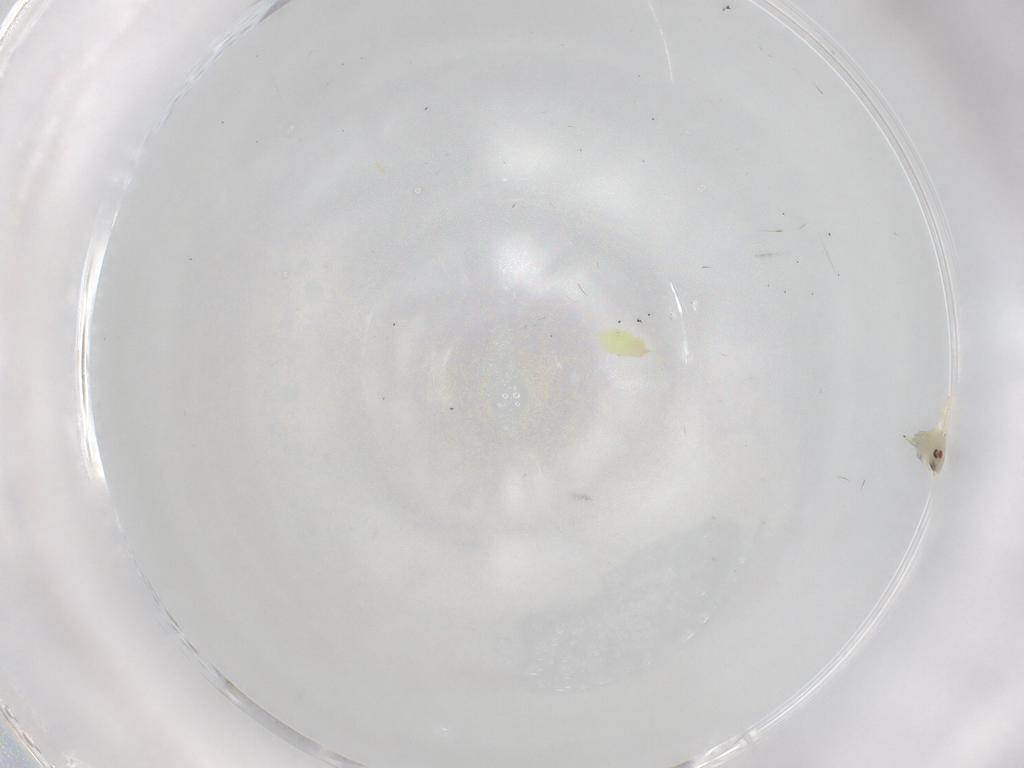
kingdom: Animalia
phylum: Arthropoda
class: Insecta
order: Hemiptera
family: Aleyrodidae
